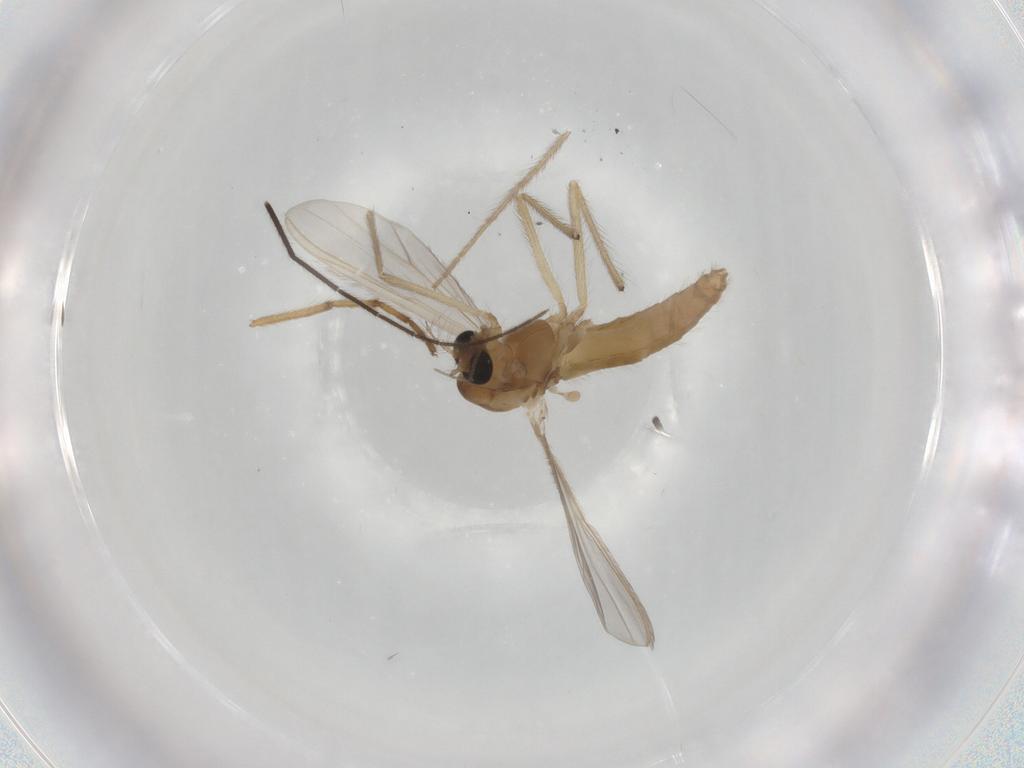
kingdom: Animalia
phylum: Arthropoda
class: Insecta
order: Diptera
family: Chironomidae
